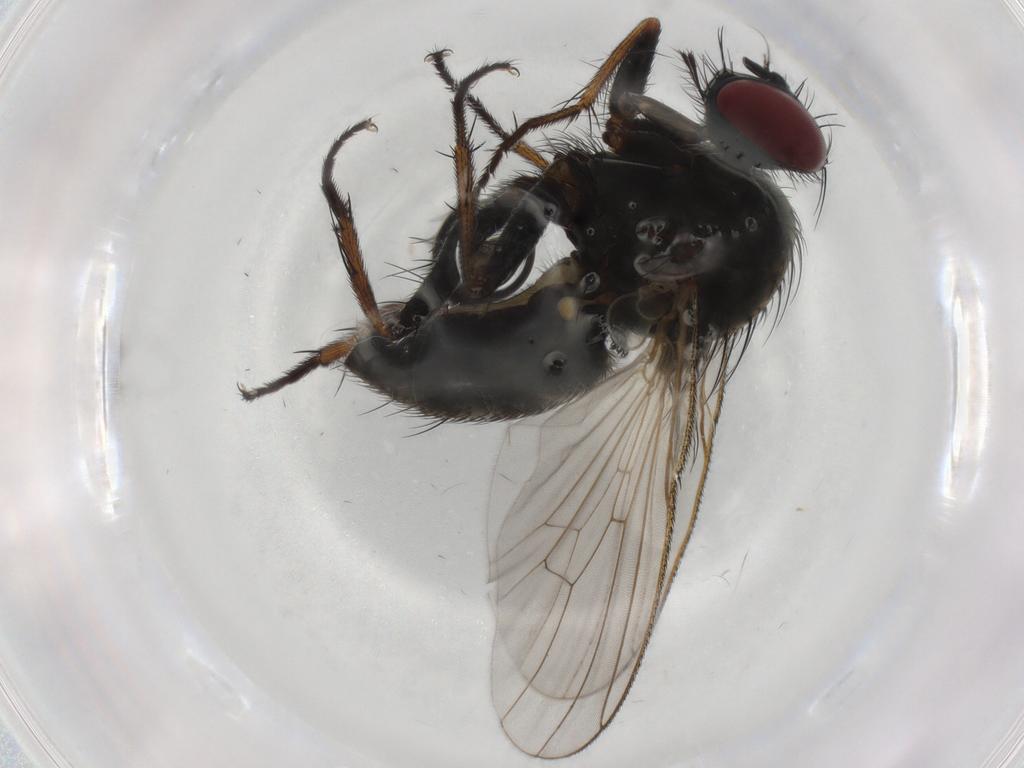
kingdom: Animalia
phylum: Arthropoda
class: Insecta
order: Diptera
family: Muscidae
